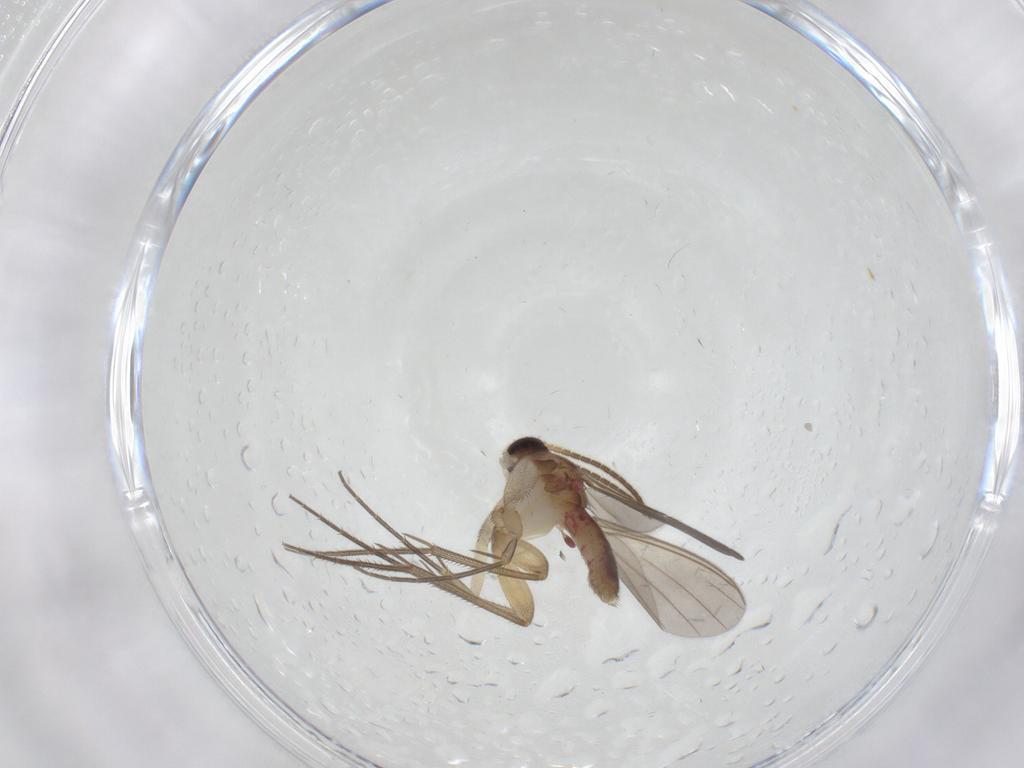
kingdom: Animalia
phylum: Arthropoda
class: Insecta
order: Diptera
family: Mycetophilidae
